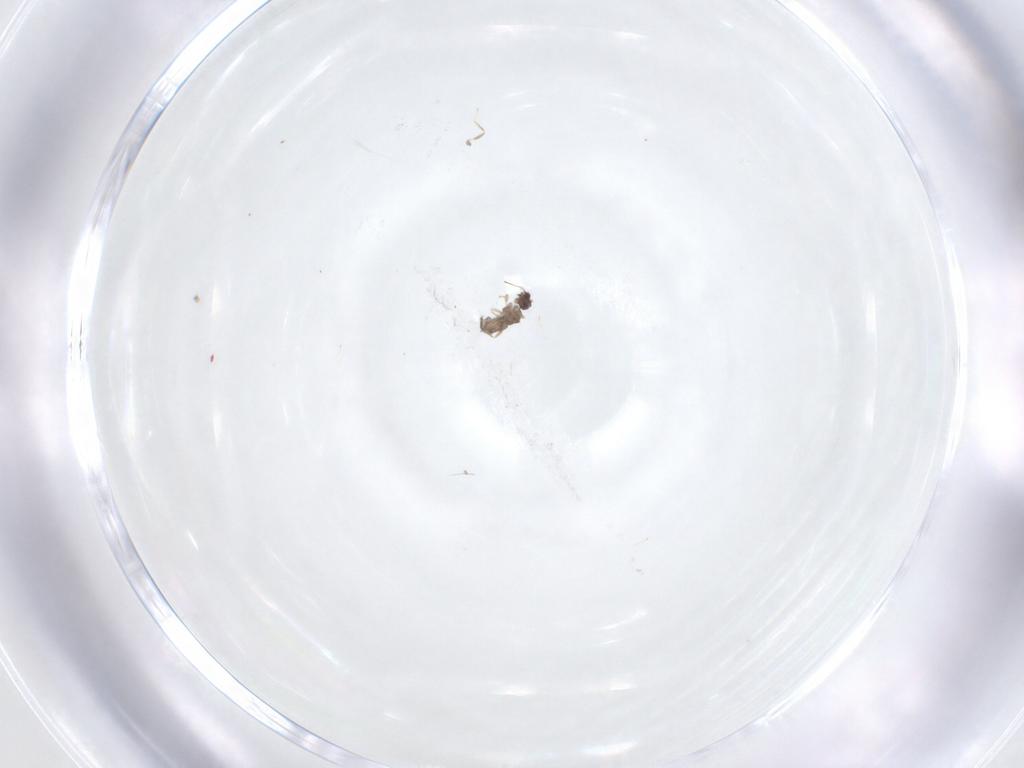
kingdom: Animalia
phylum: Arthropoda
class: Insecta
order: Hymenoptera
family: Mymaridae
